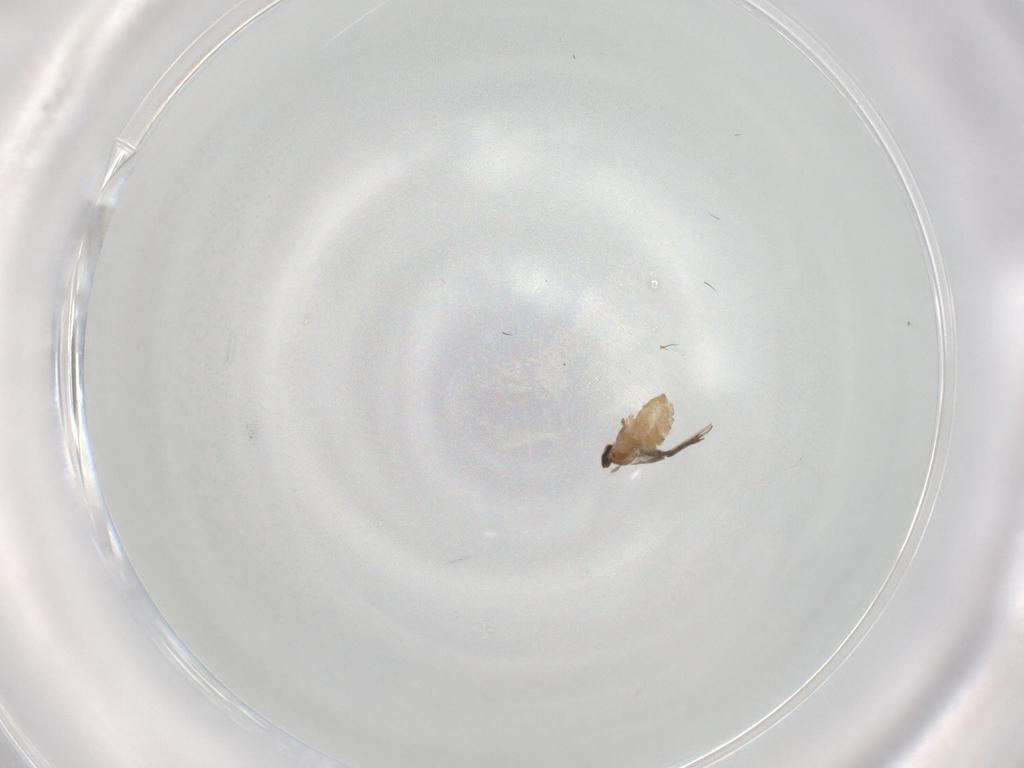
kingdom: Animalia
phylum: Arthropoda
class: Insecta
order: Diptera
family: Cecidomyiidae
